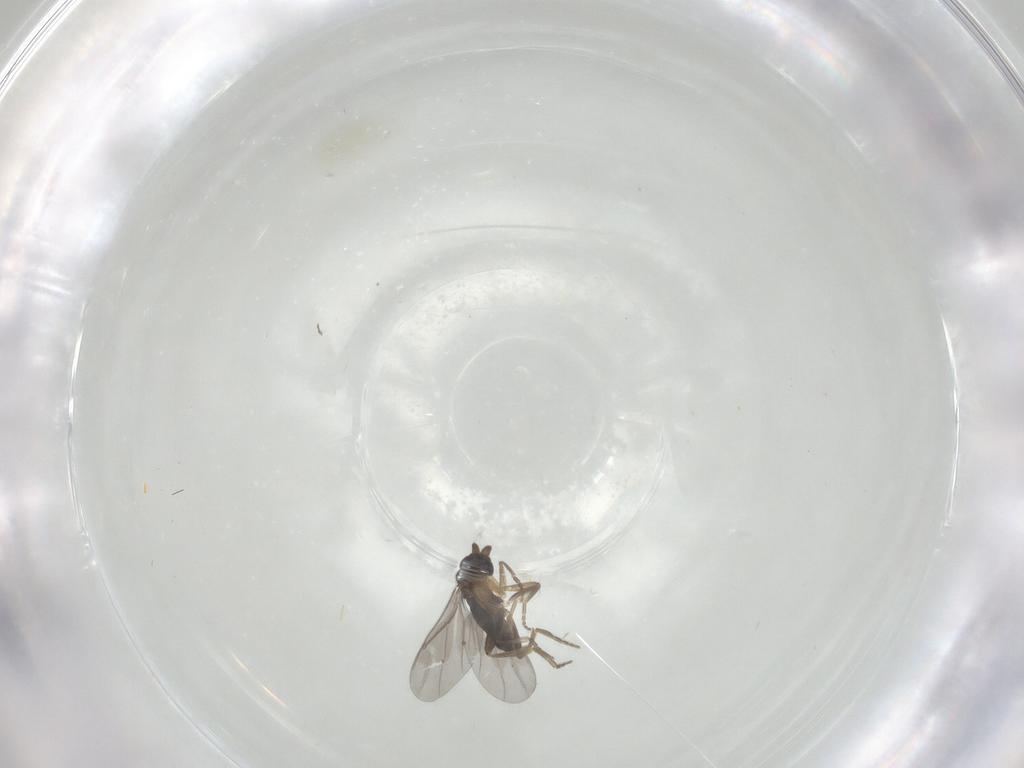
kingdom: Animalia
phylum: Arthropoda
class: Insecta
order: Diptera
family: Cecidomyiidae
